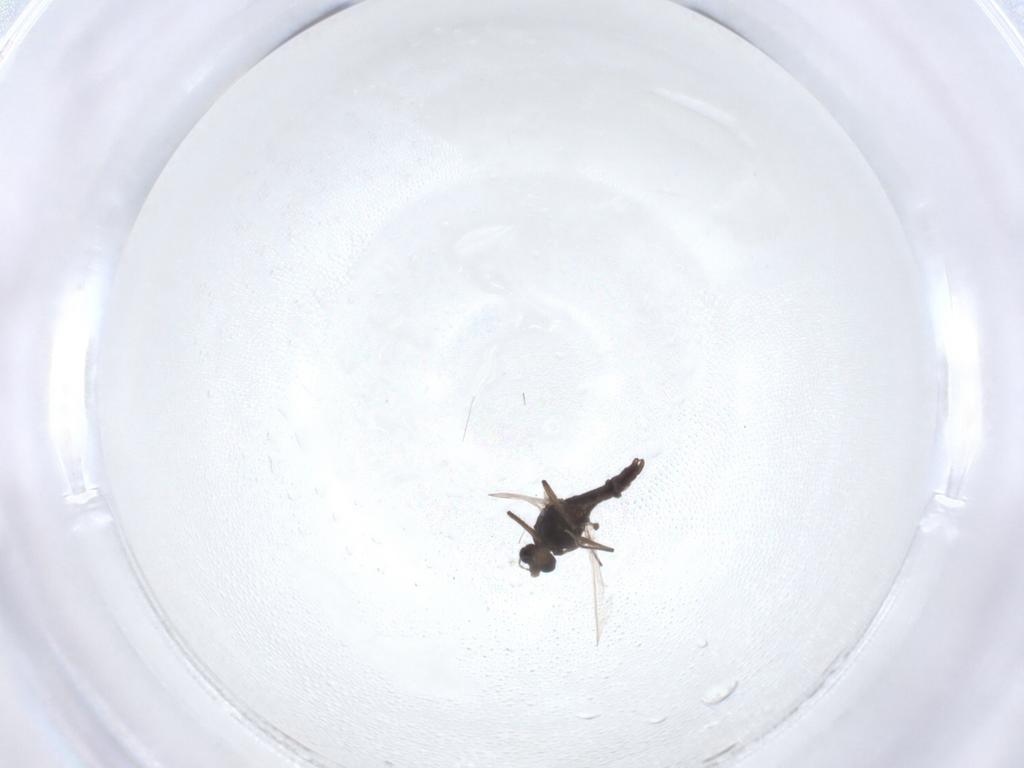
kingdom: Animalia
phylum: Arthropoda
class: Insecta
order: Diptera
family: Chironomidae
